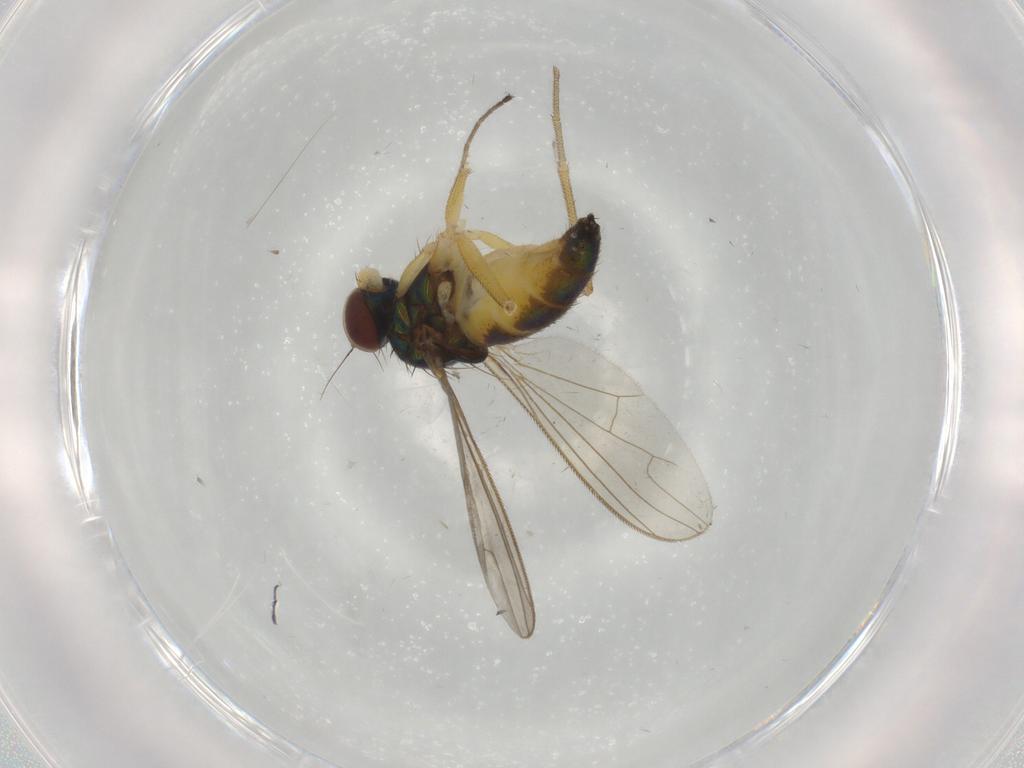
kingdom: Animalia
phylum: Arthropoda
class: Insecta
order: Diptera
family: Dolichopodidae
